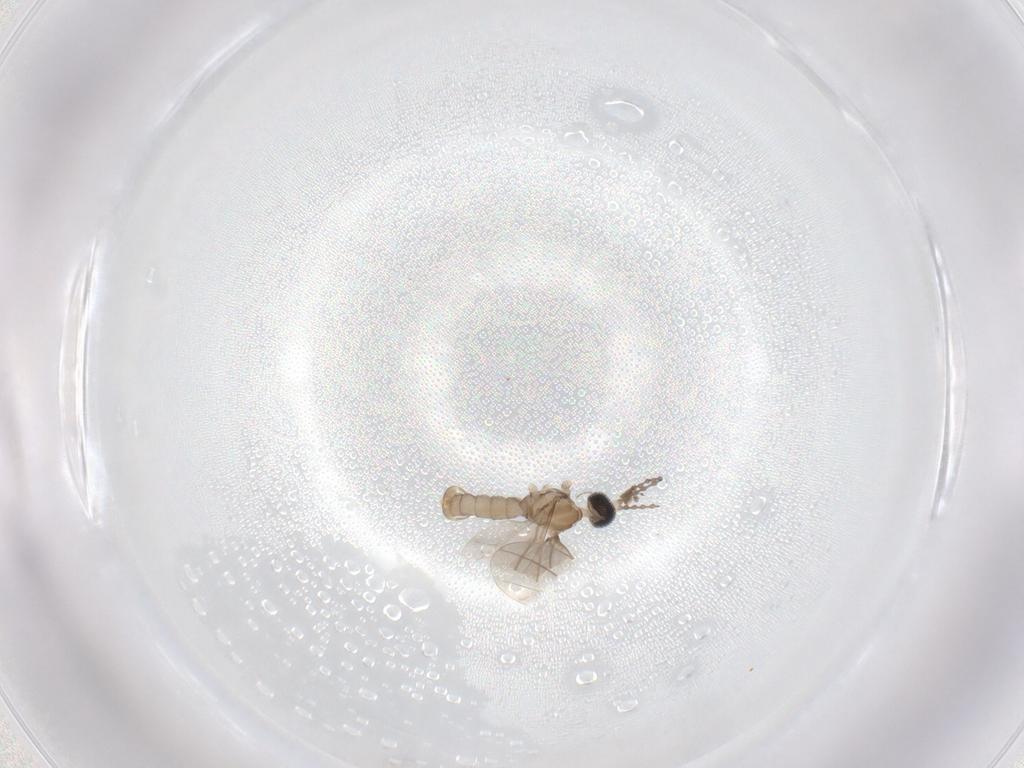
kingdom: Animalia
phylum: Arthropoda
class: Insecta
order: Diptera
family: Cecidomyiidae
